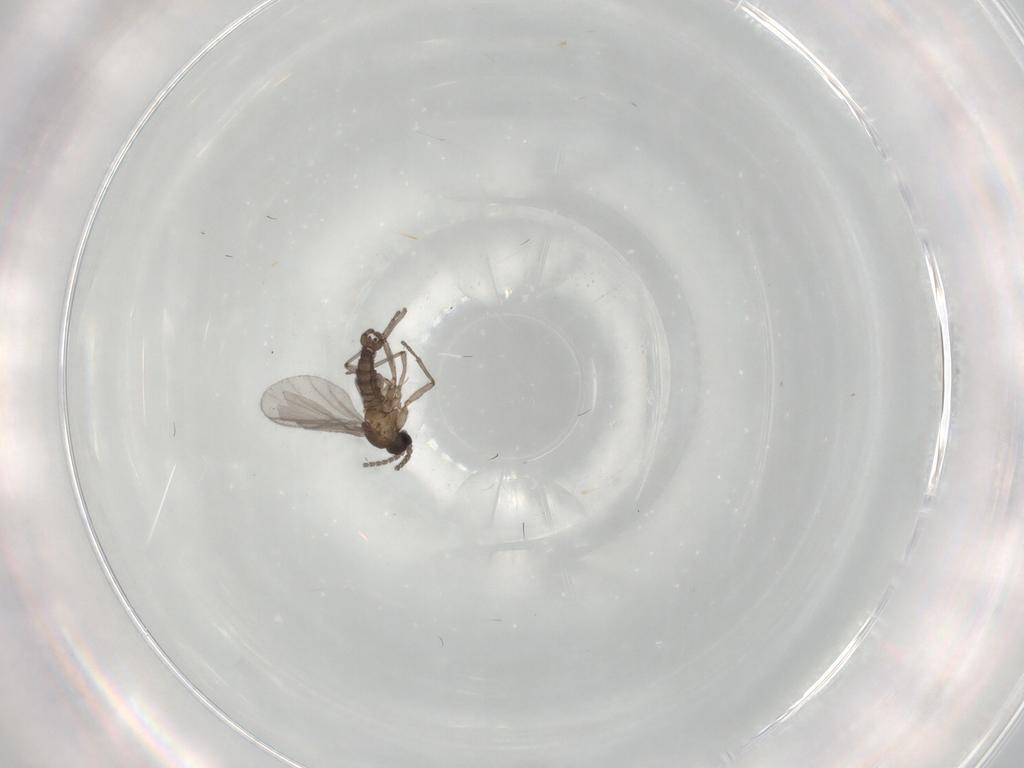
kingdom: Animalia
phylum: Arthropoda
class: Insecta
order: Diptera
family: Sciaridae
